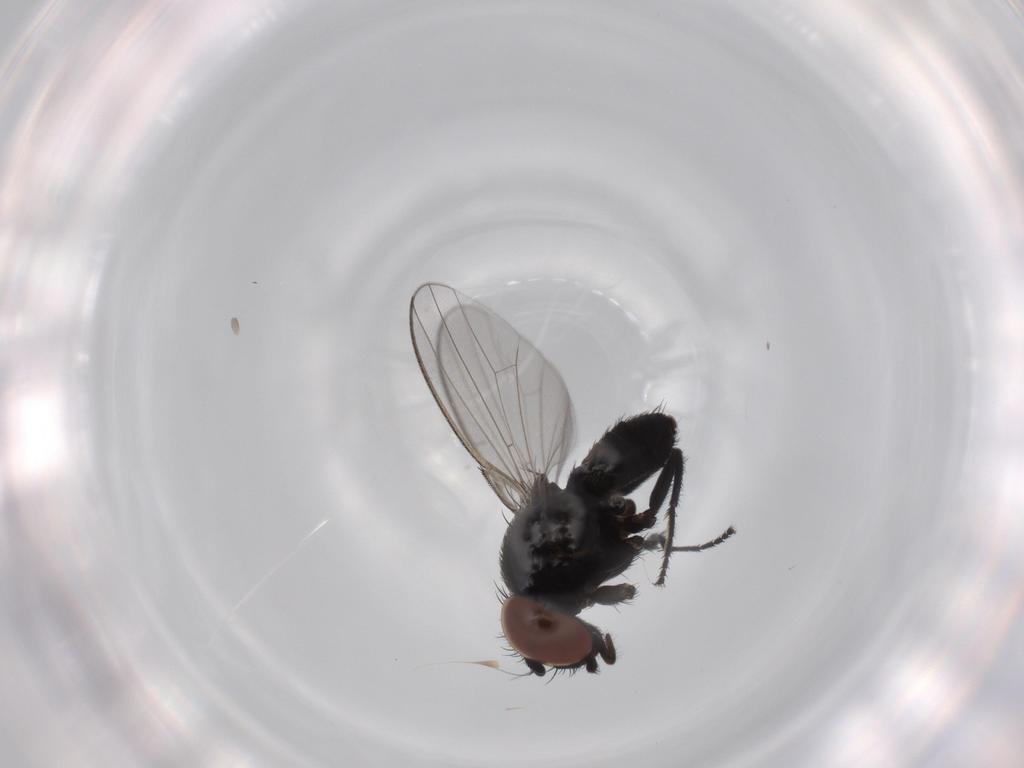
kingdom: Animalia
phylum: Arthropoda
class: Insecta
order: Diptera
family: Milichiidae
